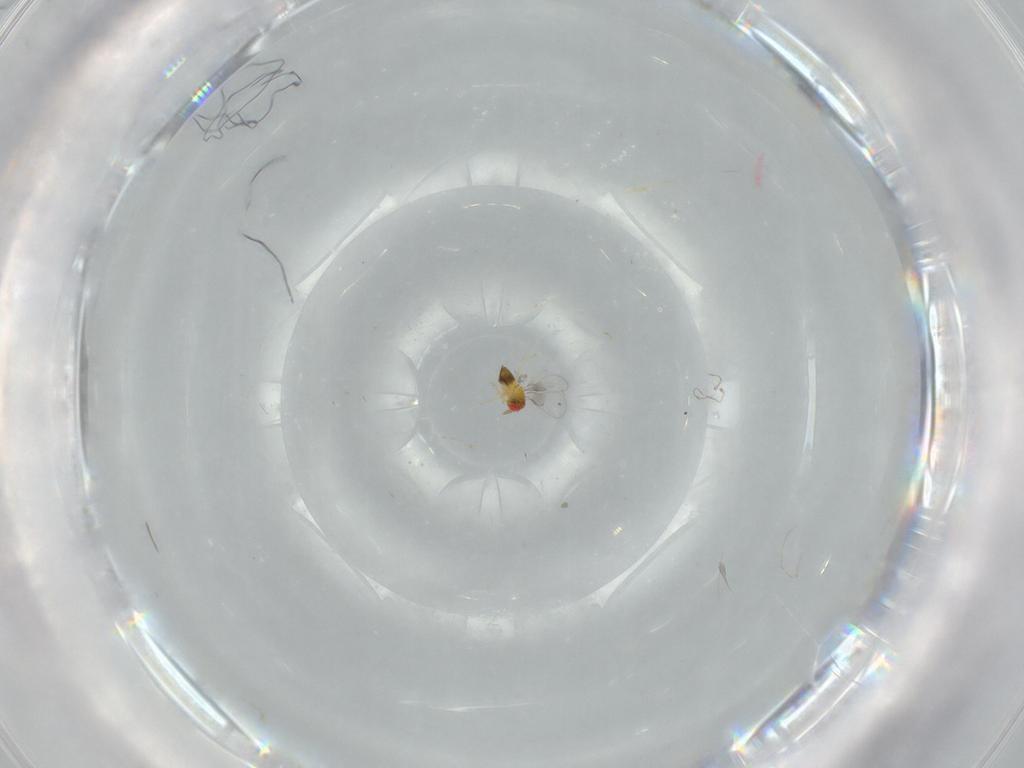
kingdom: Animalia
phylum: Arthropoda
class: Insecta
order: Hymenoptera
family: Trichogrammatidae
